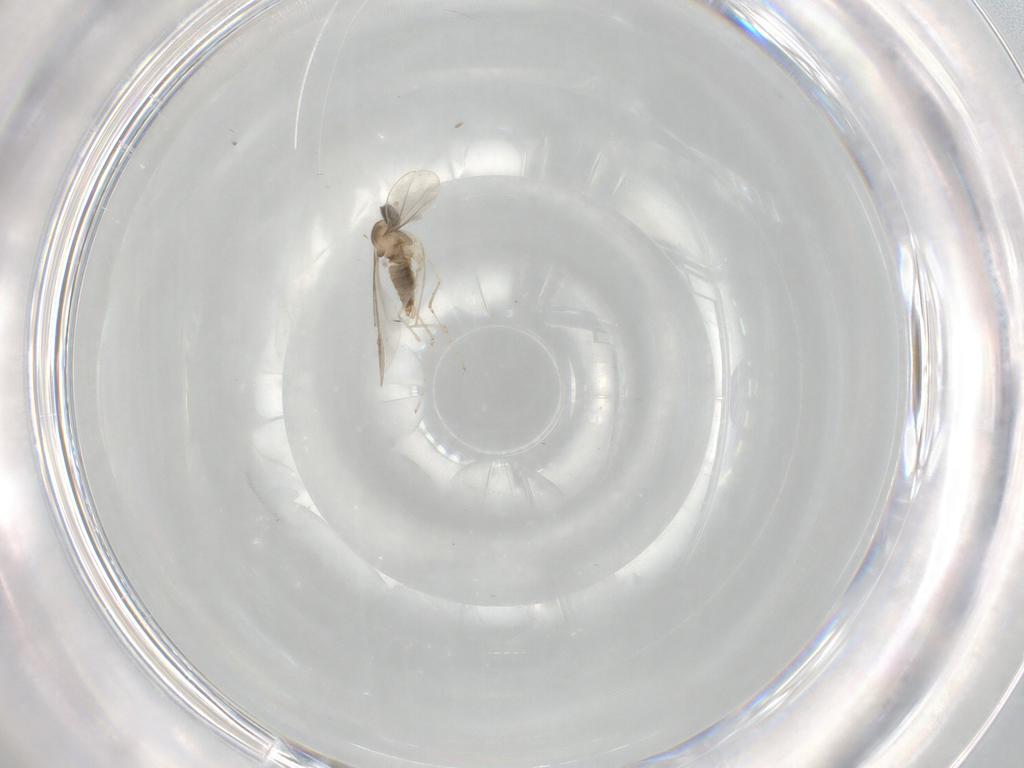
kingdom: Animalia
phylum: Arthropoda
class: Insecta
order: Diptera
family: Cecidomyiidae
